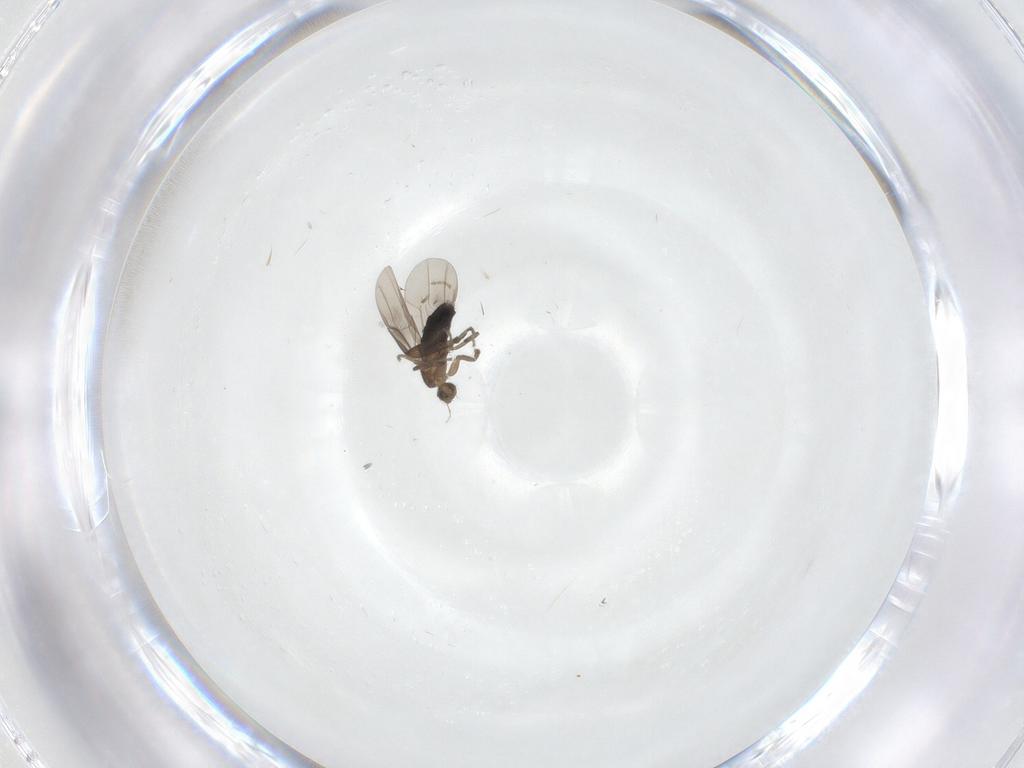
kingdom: Animalia
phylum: Arthropoda
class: Insecta
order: Diptera
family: Phoridae
